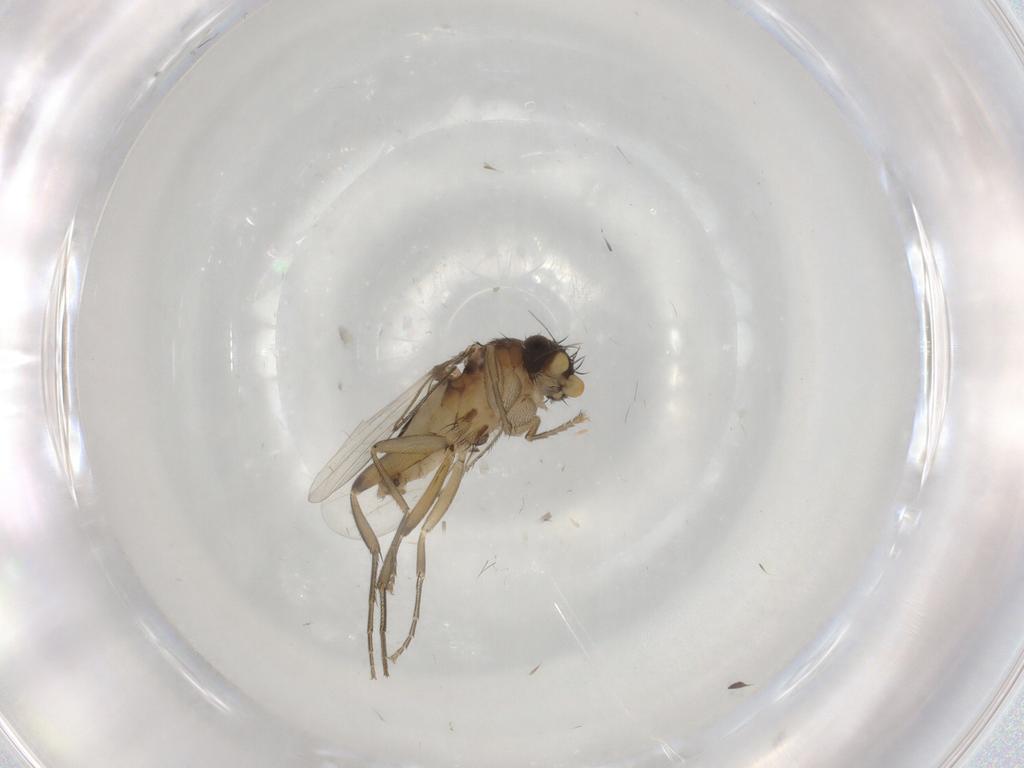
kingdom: Animalia
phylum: Arthropoda
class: Insecta
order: Diptera
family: Phoridae
